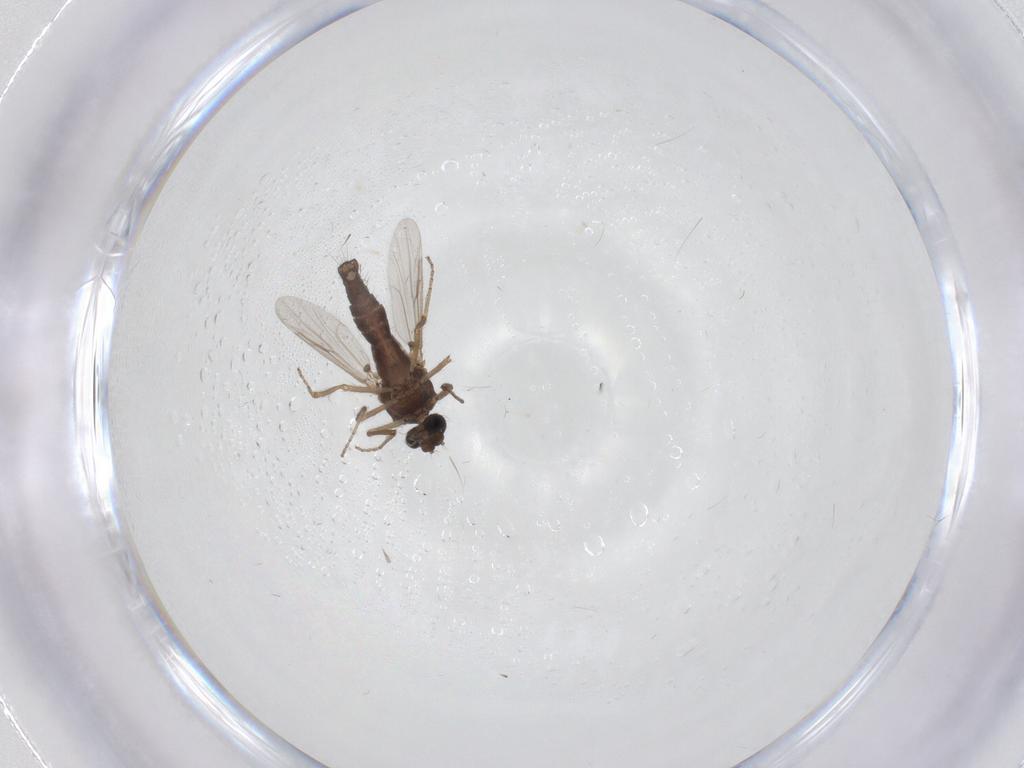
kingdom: Animalia
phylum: Arthropoda
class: Insecta
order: Diptera
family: Ceratopogonidae
